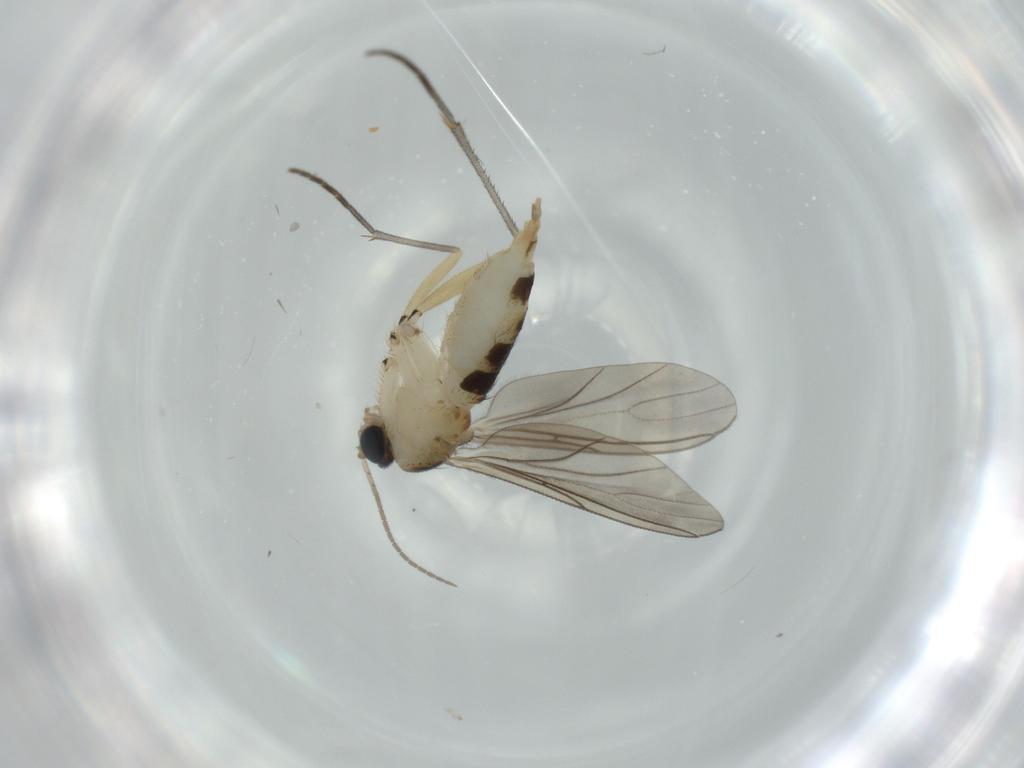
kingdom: Animalia
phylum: Arthropoda
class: Insecta
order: Diptera
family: Sciaridae
